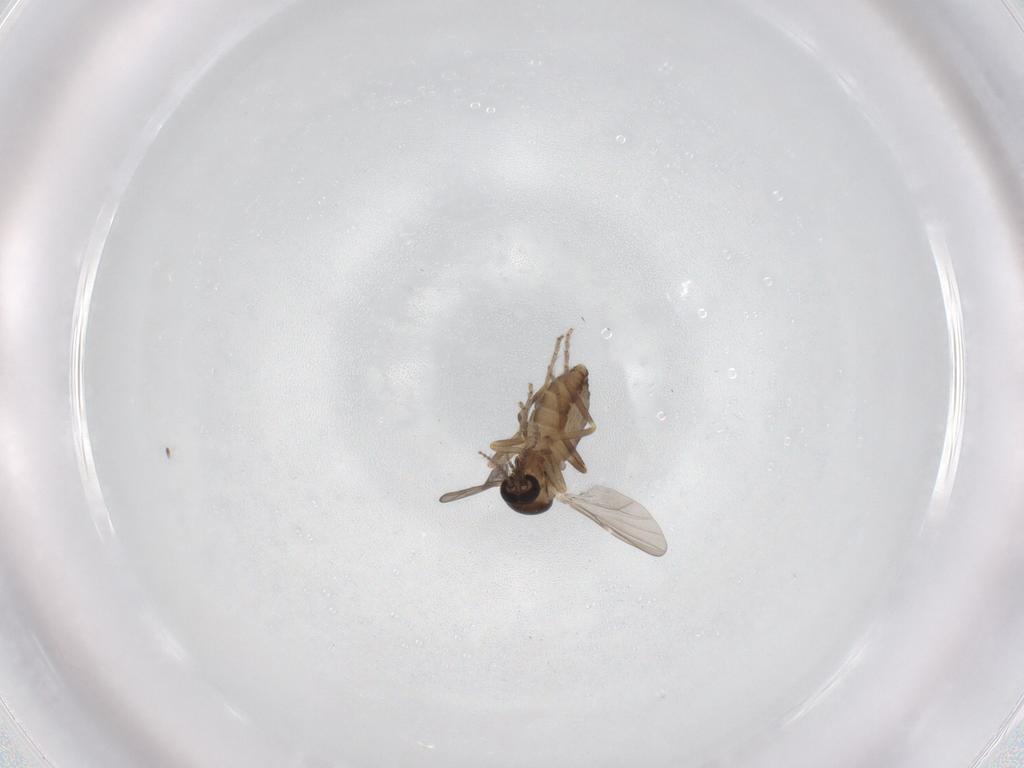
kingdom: Animalia
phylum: Arthropoda
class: Insecta
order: Diptera
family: Ceratopogonidae
